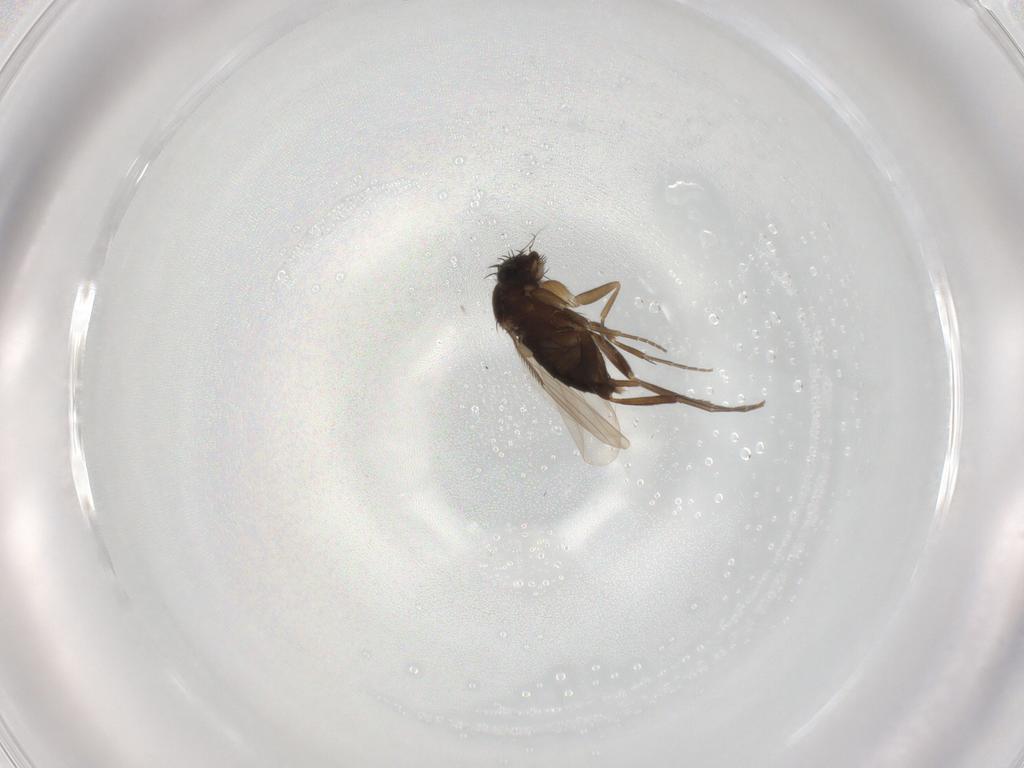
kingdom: Animalia
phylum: Arthropoda
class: Insecta
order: Diptera
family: Phoridae
